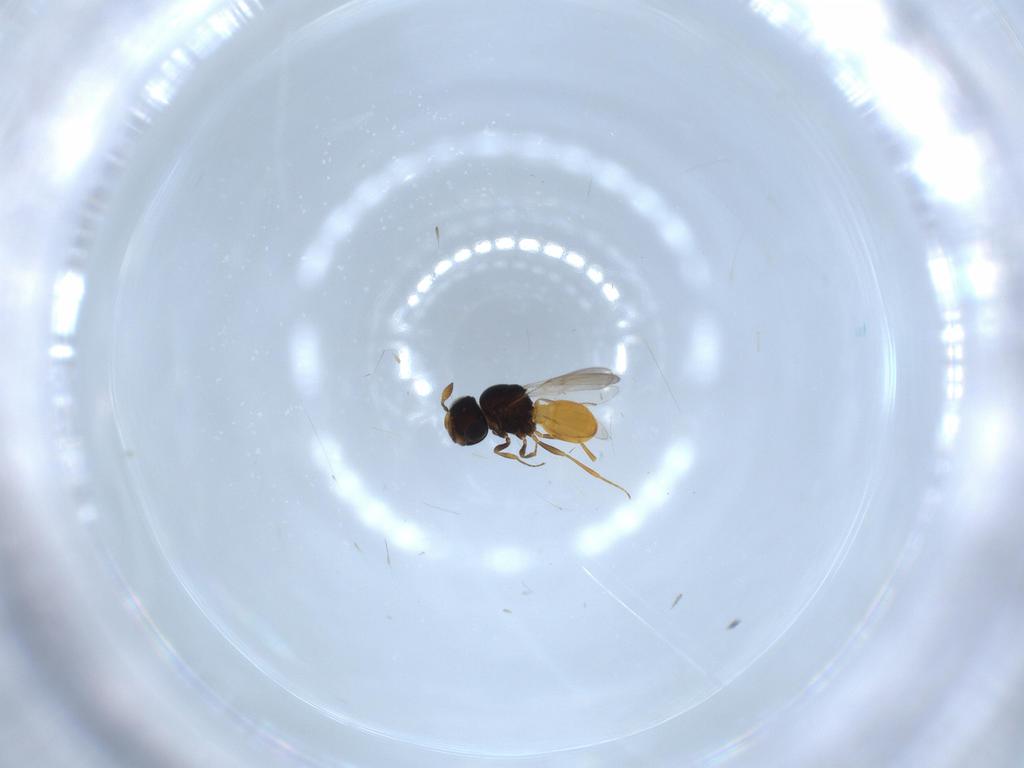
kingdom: Animalia
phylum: Arthropoda
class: Insecta
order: Hymenoptera
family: Scelionidae
